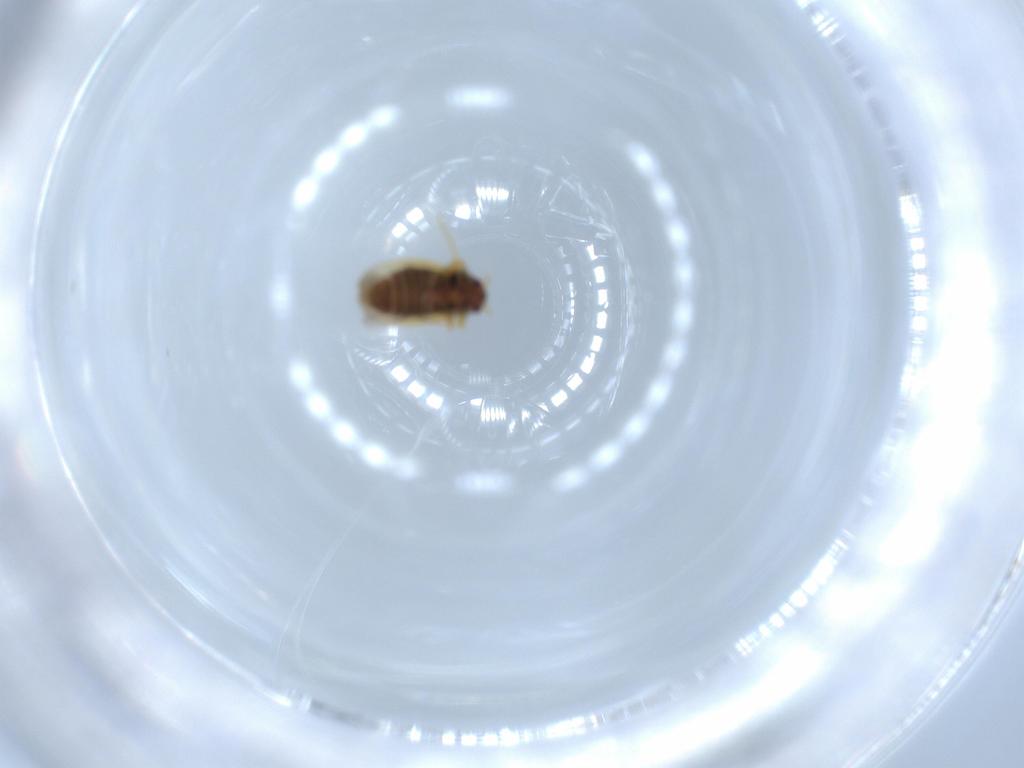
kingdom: Animalia
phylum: Arthropoda
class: Insecta
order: Hemiptera
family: Schizopteridae
